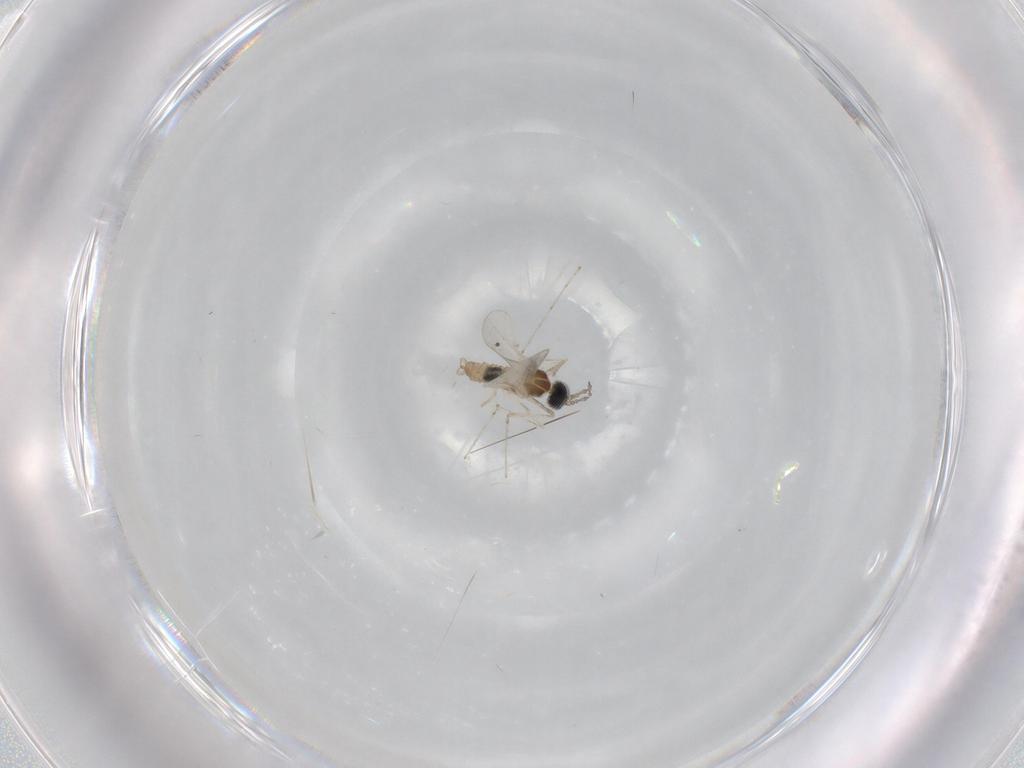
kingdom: Animalia
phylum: Arthropoda
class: Insecta
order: Diptera
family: Cecidomyiidae
